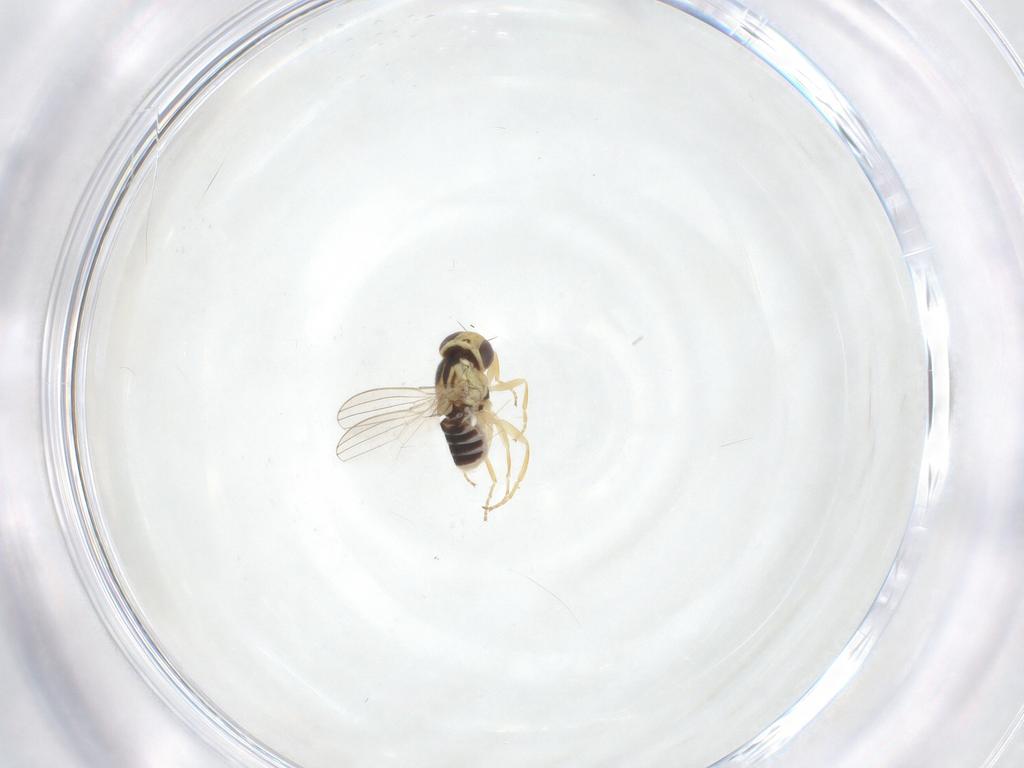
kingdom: Animalia
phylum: Arthropoda
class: Insecta
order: Diptera
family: Chyromyidae
